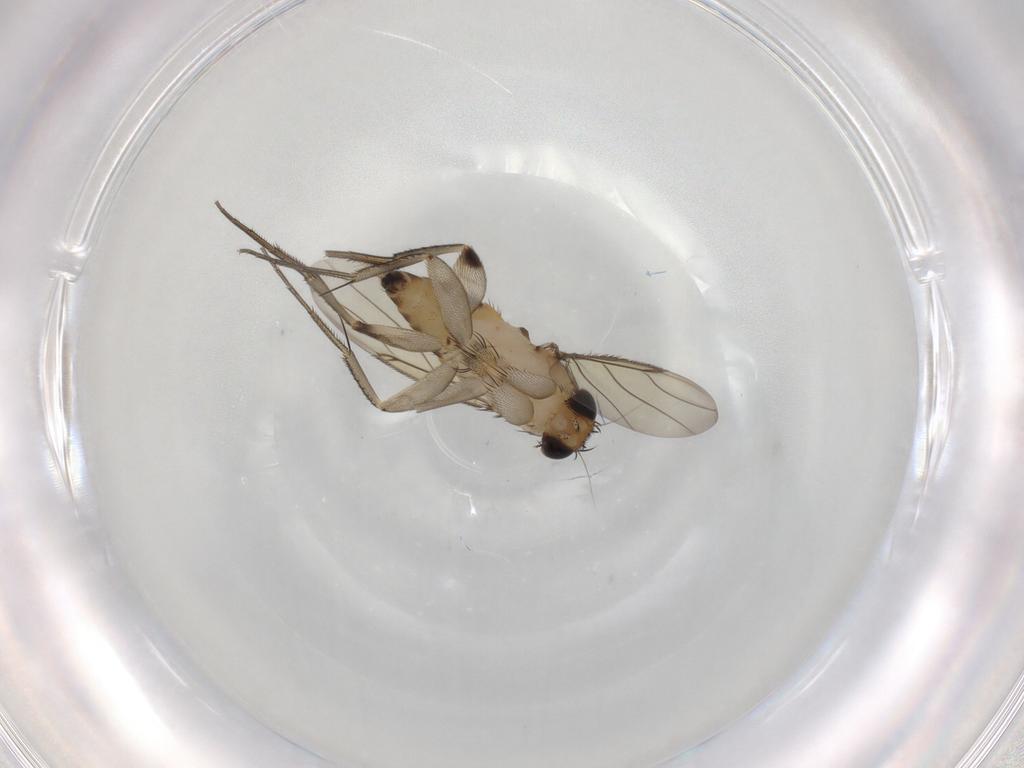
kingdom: Animalia
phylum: Arthropoda
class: Insecta
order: Diptera
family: Phoridae
